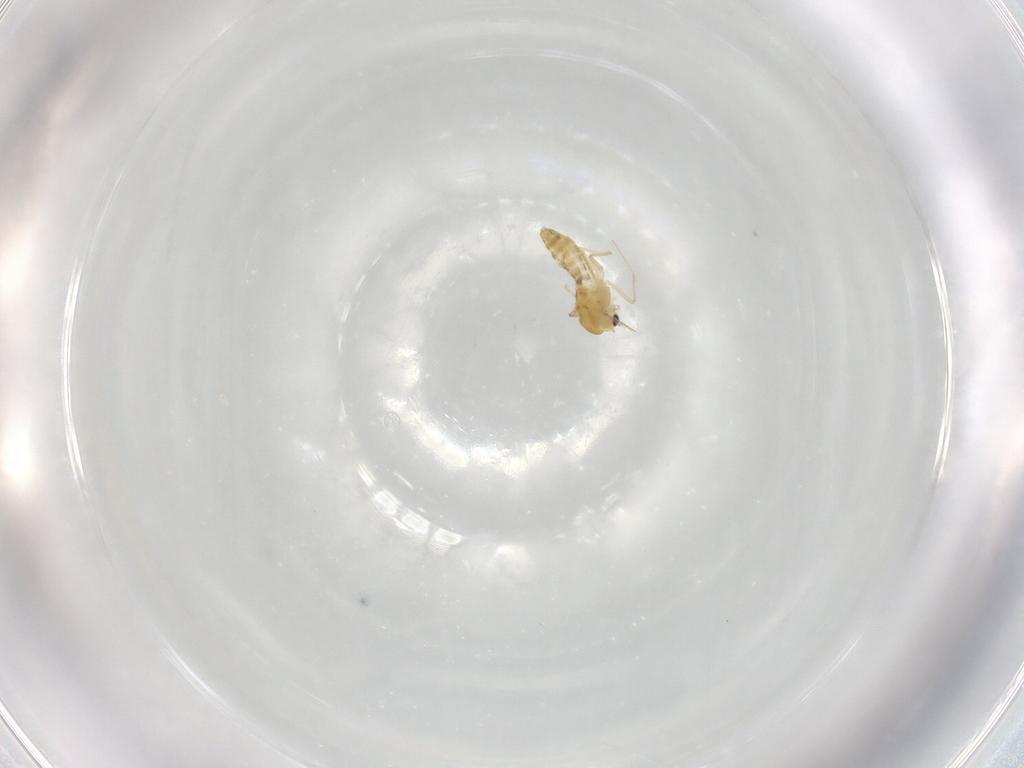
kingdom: Animalia
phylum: Arthropoda
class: Insecta
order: Diptera
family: Chironomidae
